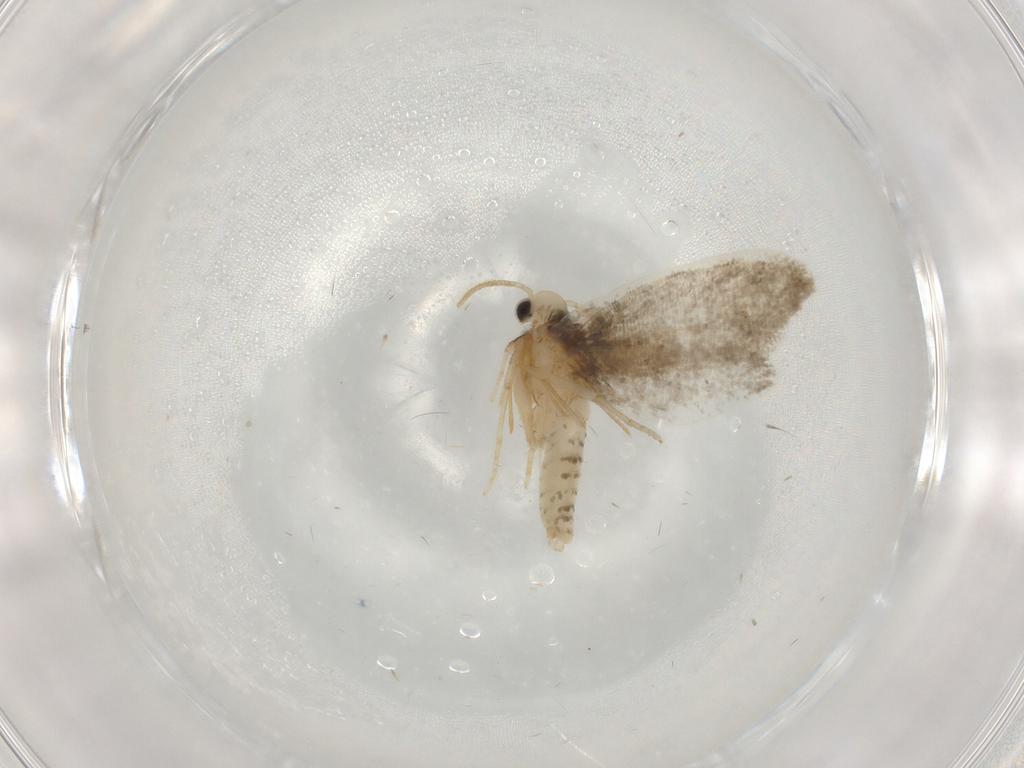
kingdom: Animalia
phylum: Arthropoda
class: Insecta
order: Lepidoptera
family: Psychidae
